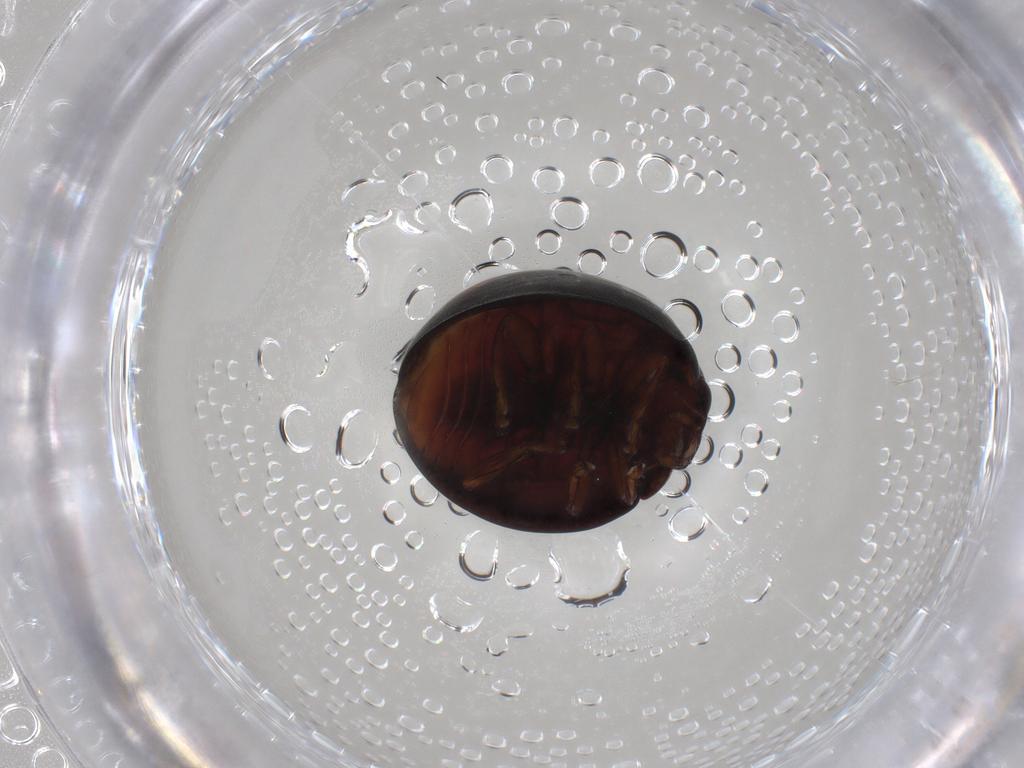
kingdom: Animalia
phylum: Arthropoda
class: Insecta
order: Coleoptera
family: Coccinellidae
